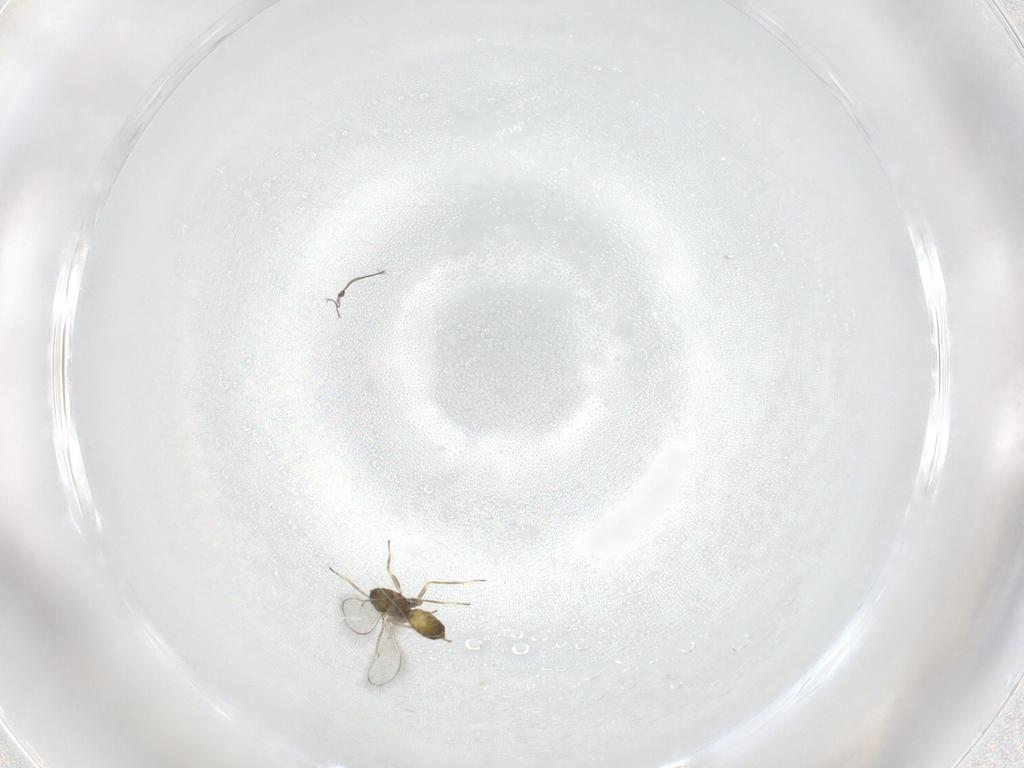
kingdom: Animalia
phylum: Arthropoda
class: Insecta
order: Hymenoptera
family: Eulophidae
